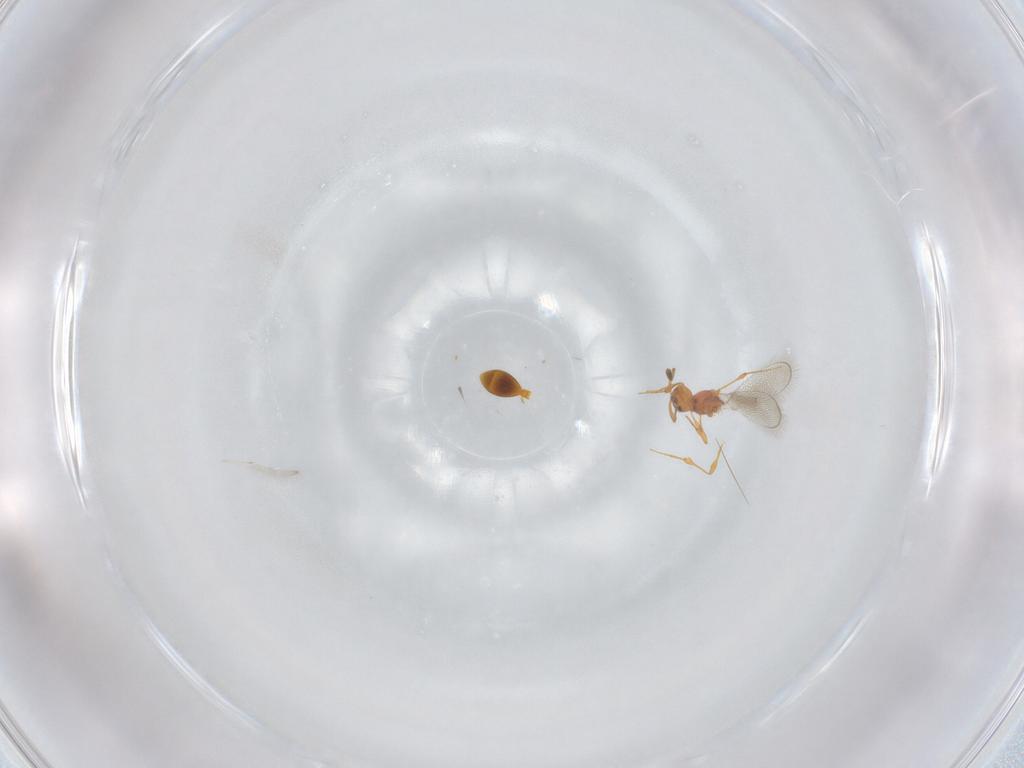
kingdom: Animalia
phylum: Arthropoda
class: Insecta
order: Hymenoptera
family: Platygastridae
